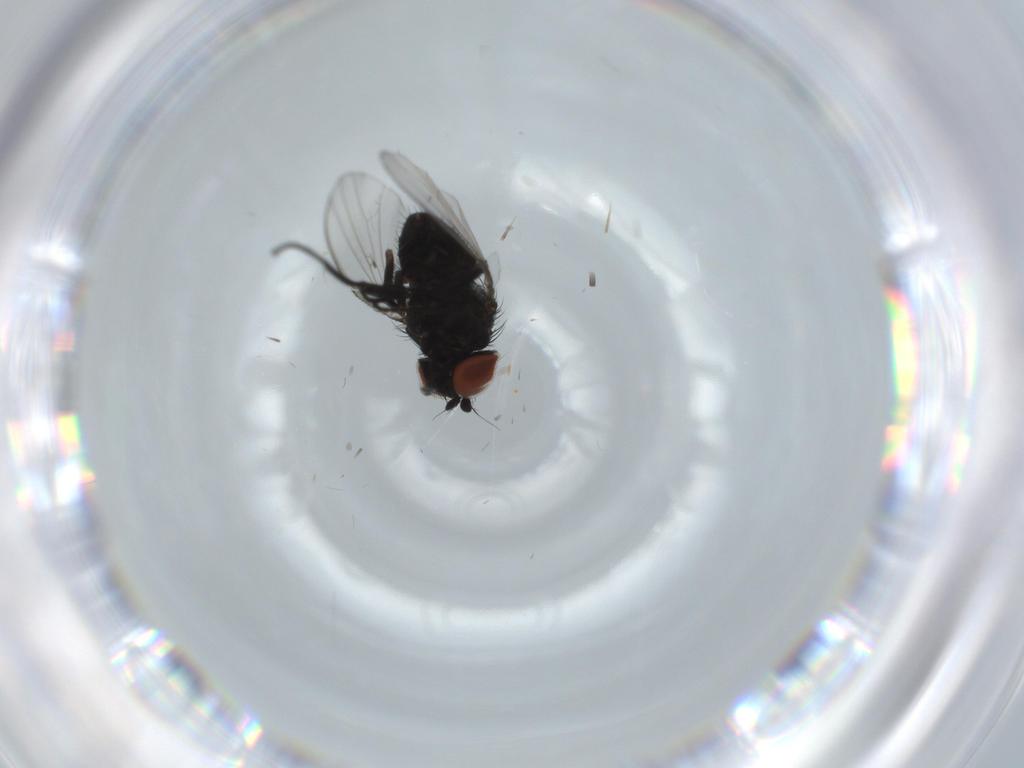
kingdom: Animalia
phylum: Arthropoda
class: Insecta
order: Diptera
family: Milichiidae
